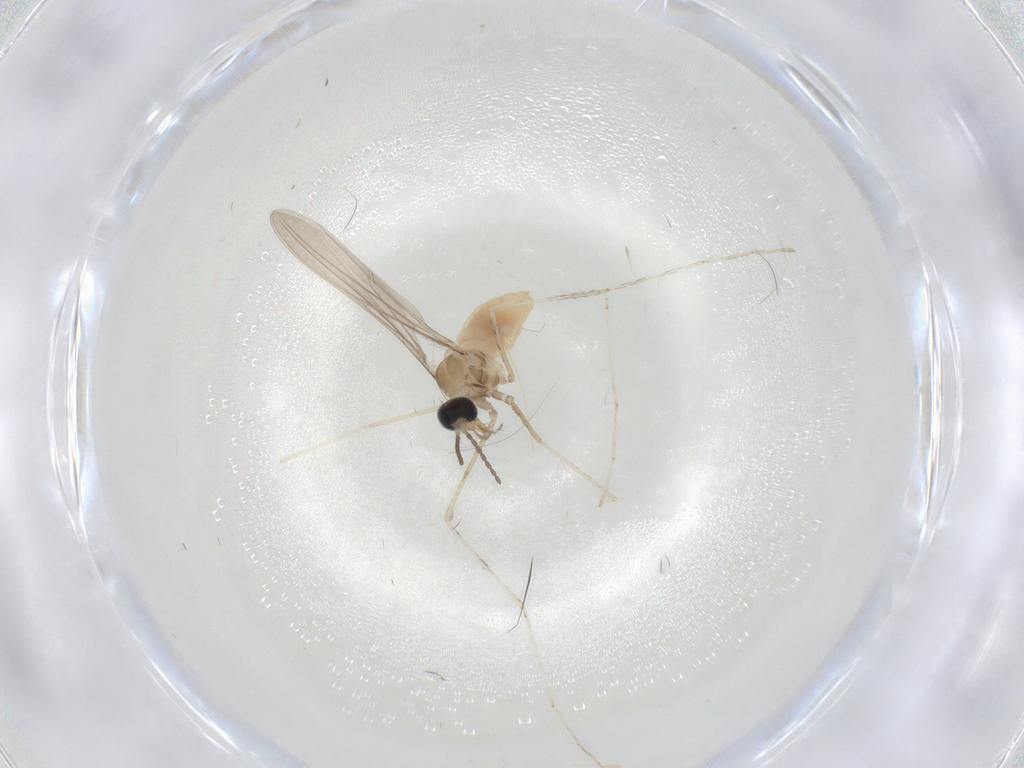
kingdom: Animalia
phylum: Arthropoda
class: Insecta
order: Diptera
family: Cecidomyiidae
